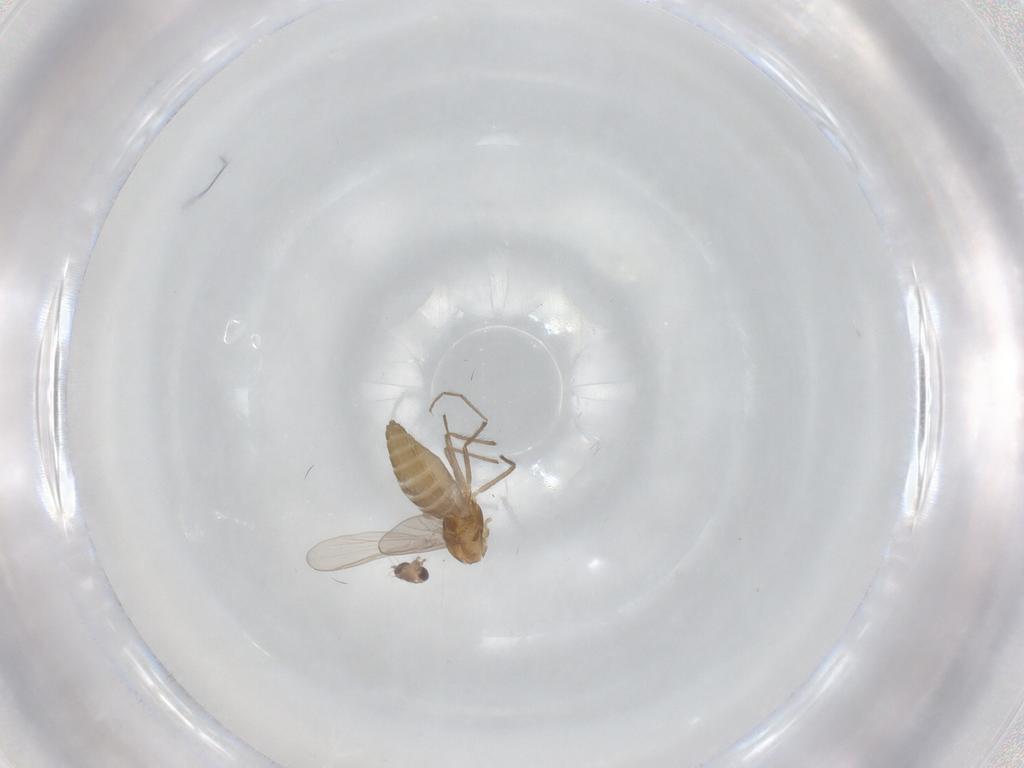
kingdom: Animalia
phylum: Arthropoda
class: Insecta
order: Diptera
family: Chironomidae
